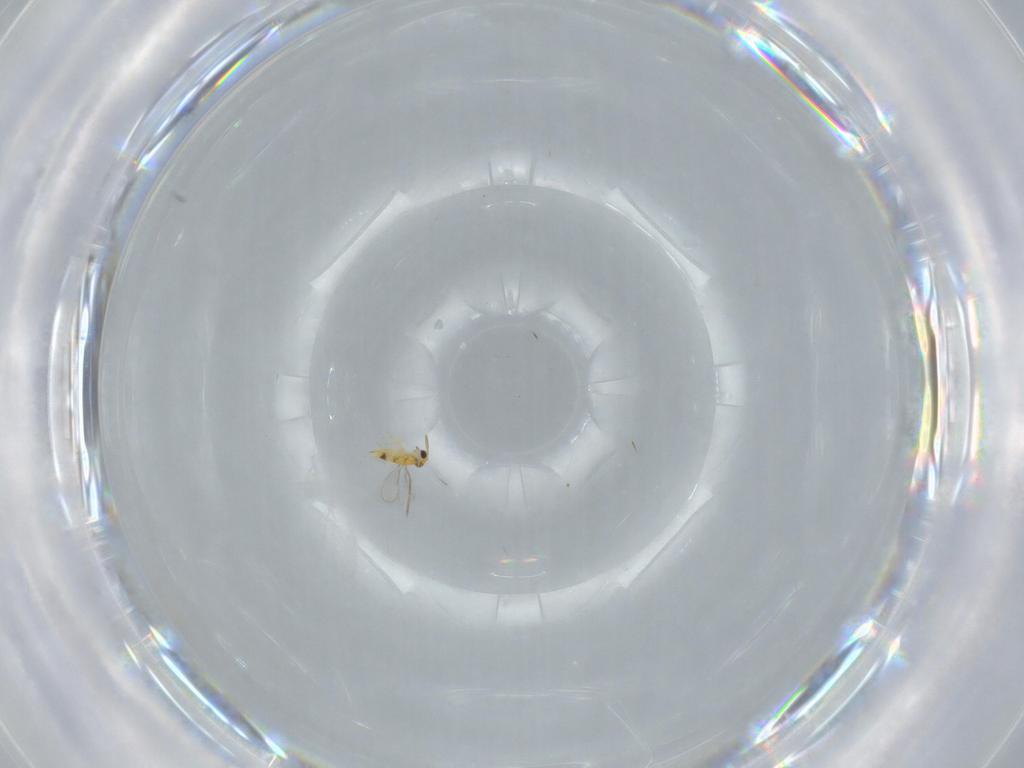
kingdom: Animalia
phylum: Arthropoda
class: Insecta
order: Hymenoptera
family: Aphelinidae
